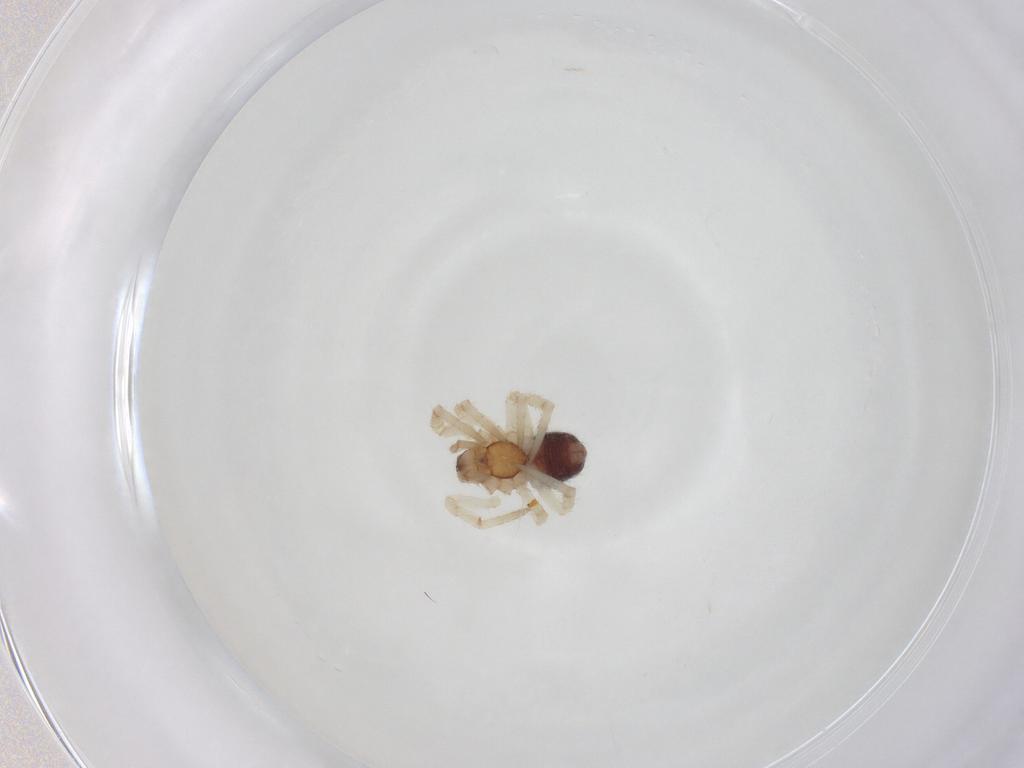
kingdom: Animalia
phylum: Arthropoda
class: Arachnida
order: Araneae
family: Theridiidae
